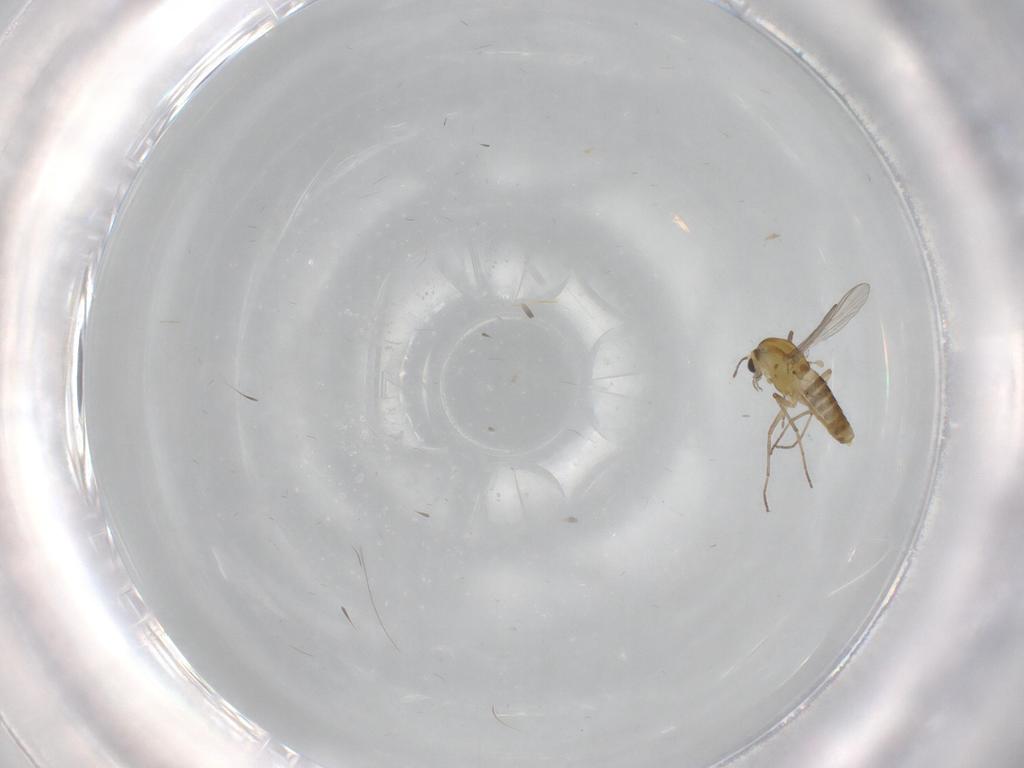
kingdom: Animalia
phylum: Arthropoda
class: Insecta
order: Diptera
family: Chironomidae
